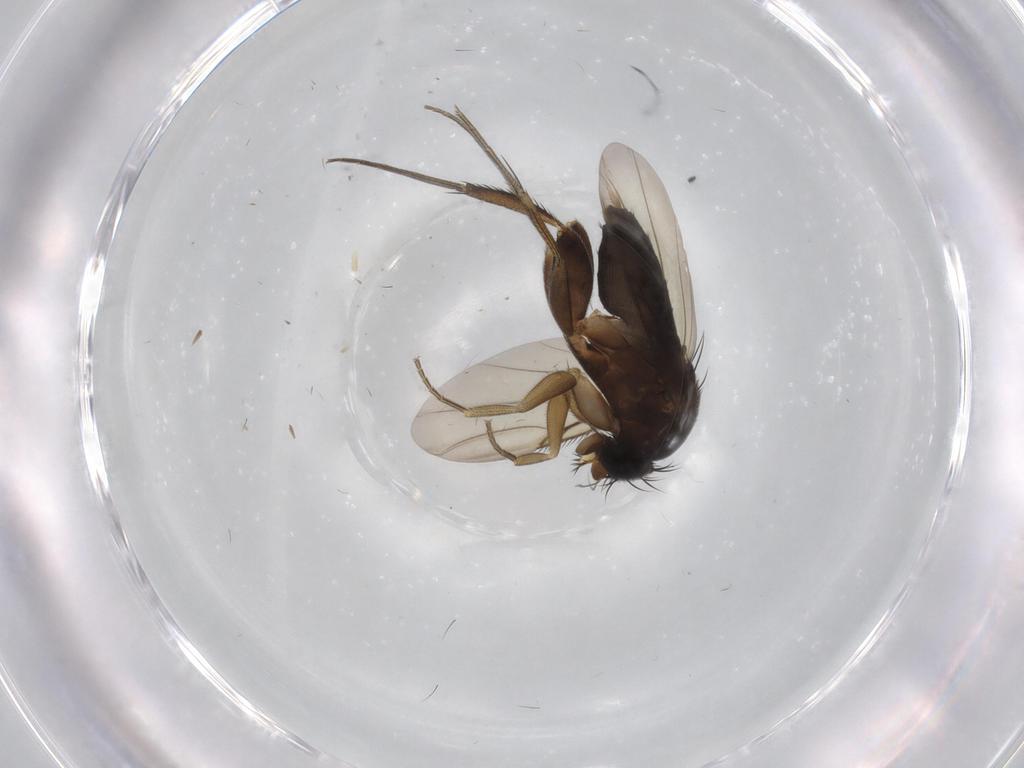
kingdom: Animalia
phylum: Arthropoda
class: Insecta
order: Diptera
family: Phoridae
